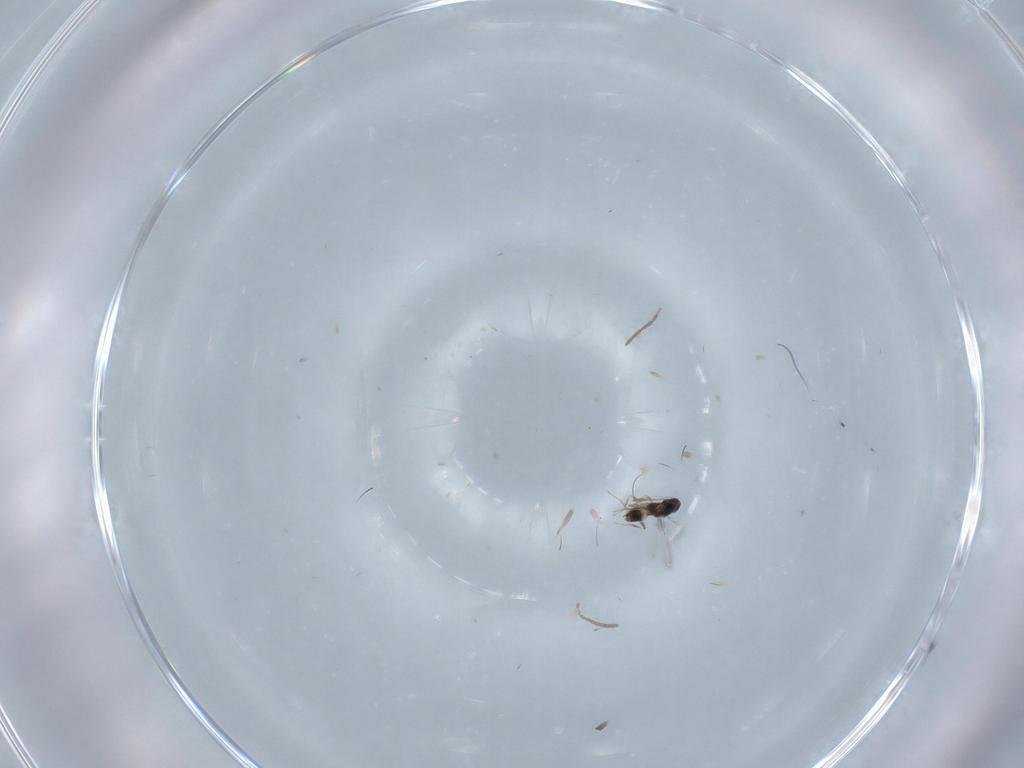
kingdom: Animalia
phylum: Arthropoda
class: Insecta
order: Hymenoptera
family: Mymaridae
